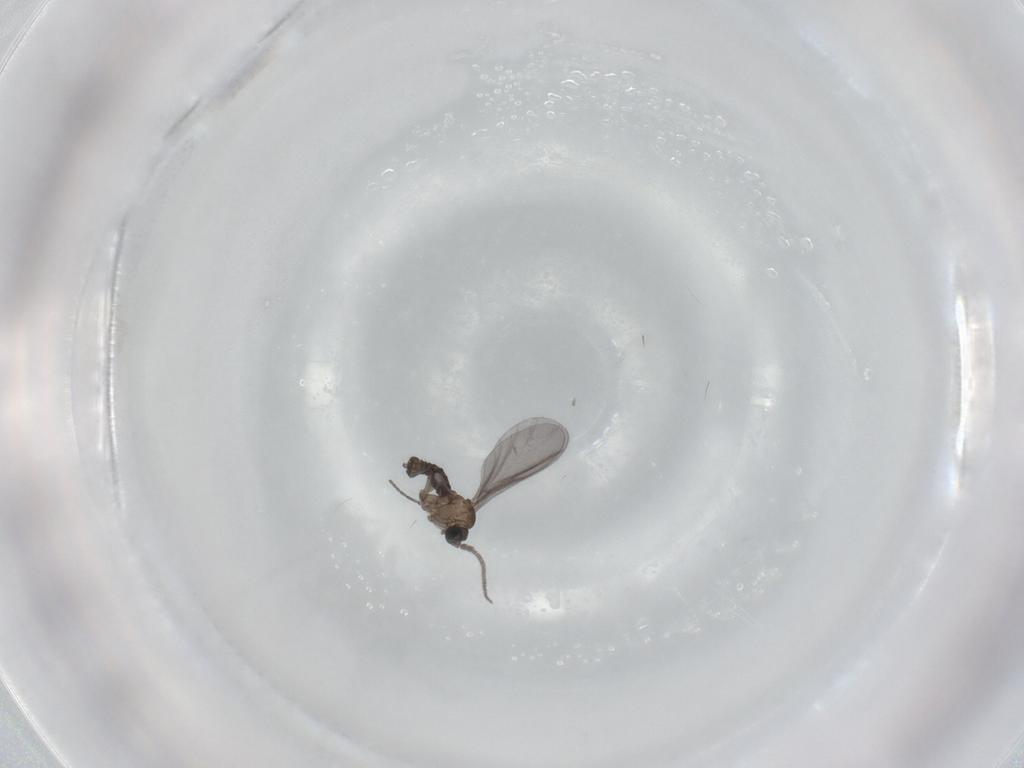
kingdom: Animalia
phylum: Arthropoda
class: Insecta
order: Diptera
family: Sciaridae
